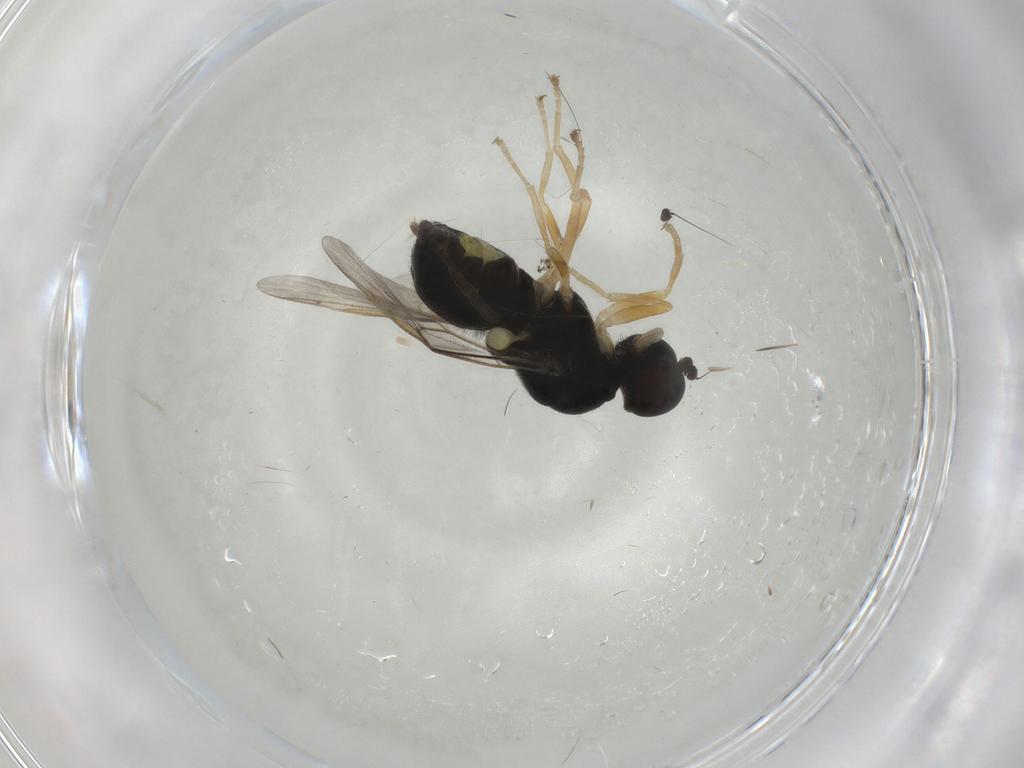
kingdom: Animalia
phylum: Arthropoda
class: Insecta
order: Diptera
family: Stratiomyidae
